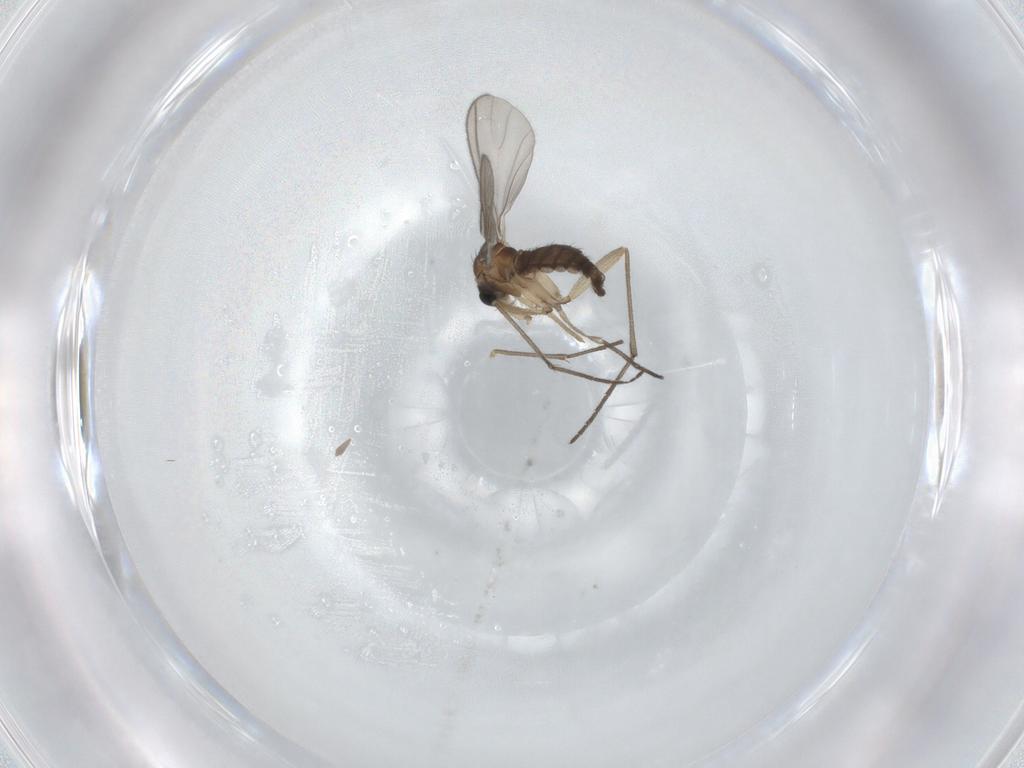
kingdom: Animalia
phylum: Arthropoda
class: Insecta
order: Diptera
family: Sciaridae
